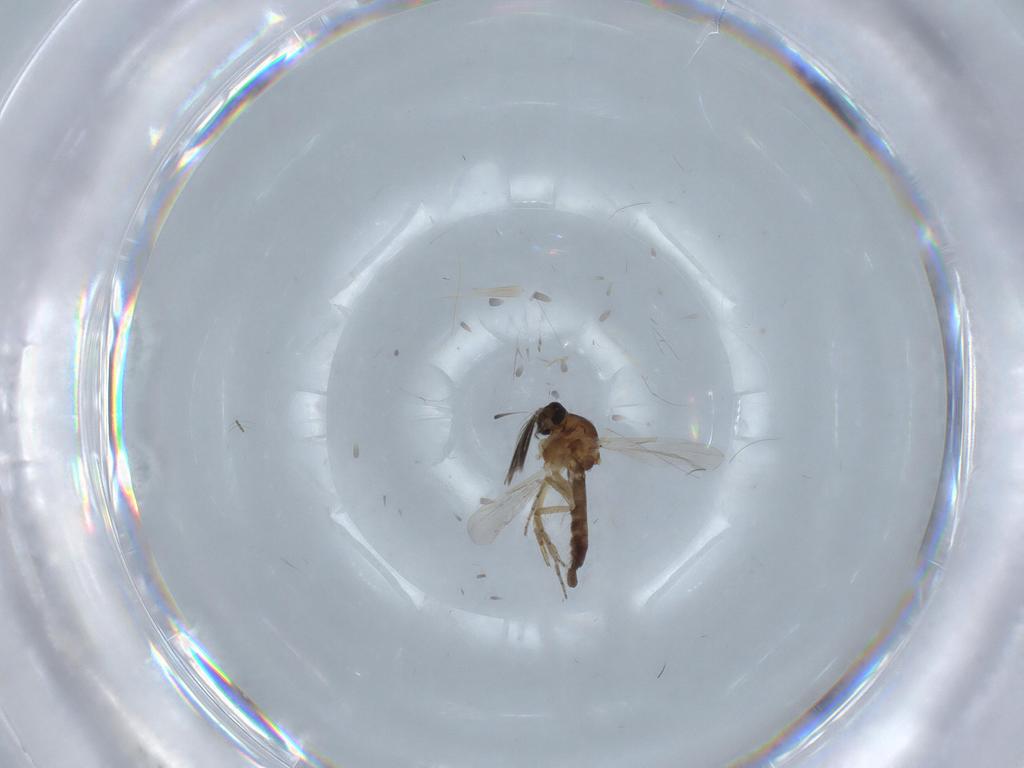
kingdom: Animalia
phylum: Arthropoda
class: Insecta
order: Diptera
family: Ceratopogonidae
